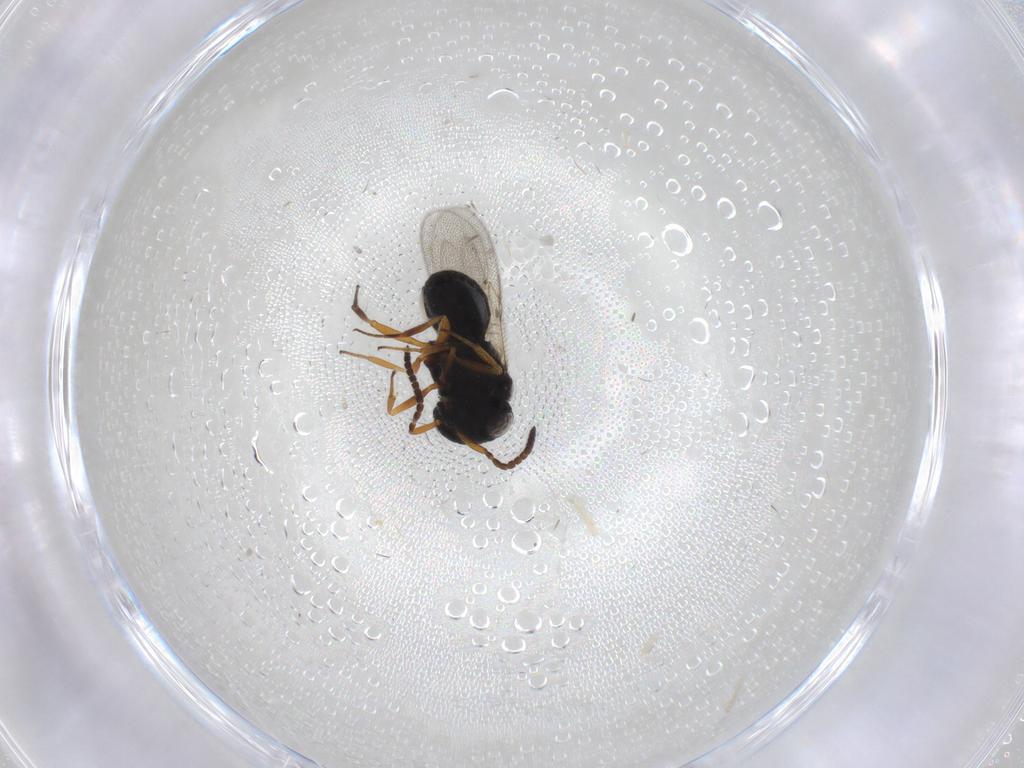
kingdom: Animalia
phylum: Arthropoda
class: Insecta
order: Hymenoptera
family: Scelionidae
